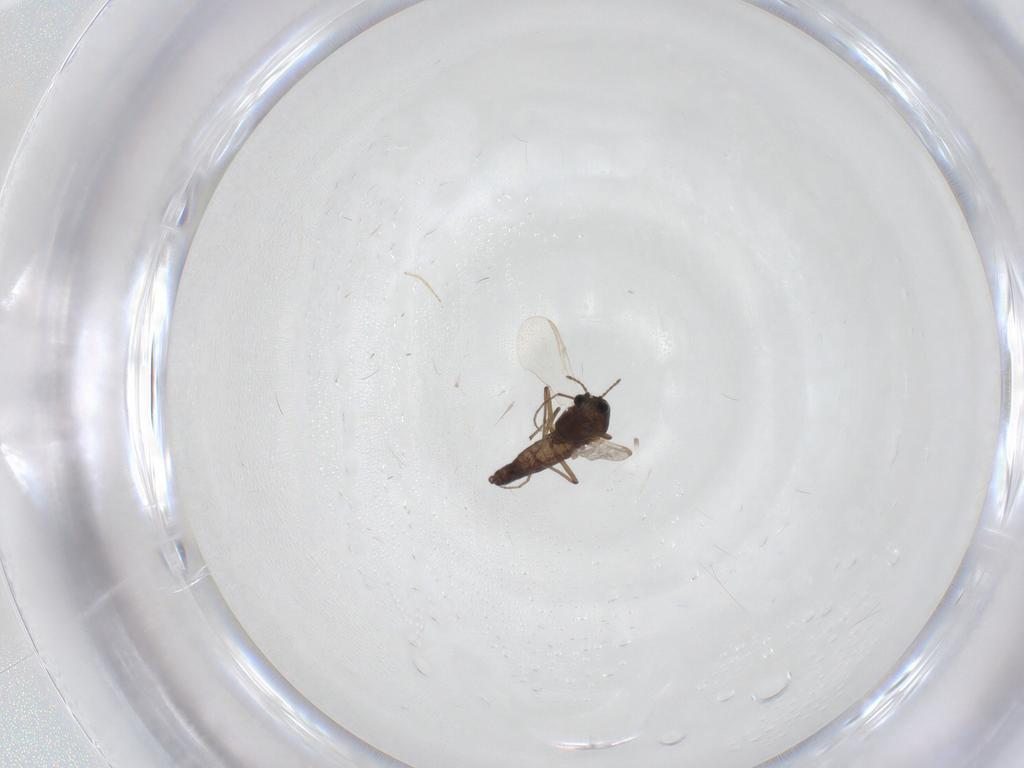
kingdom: Animalia
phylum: Arthropoda
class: Insecta
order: Diptera
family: Chironomidae
